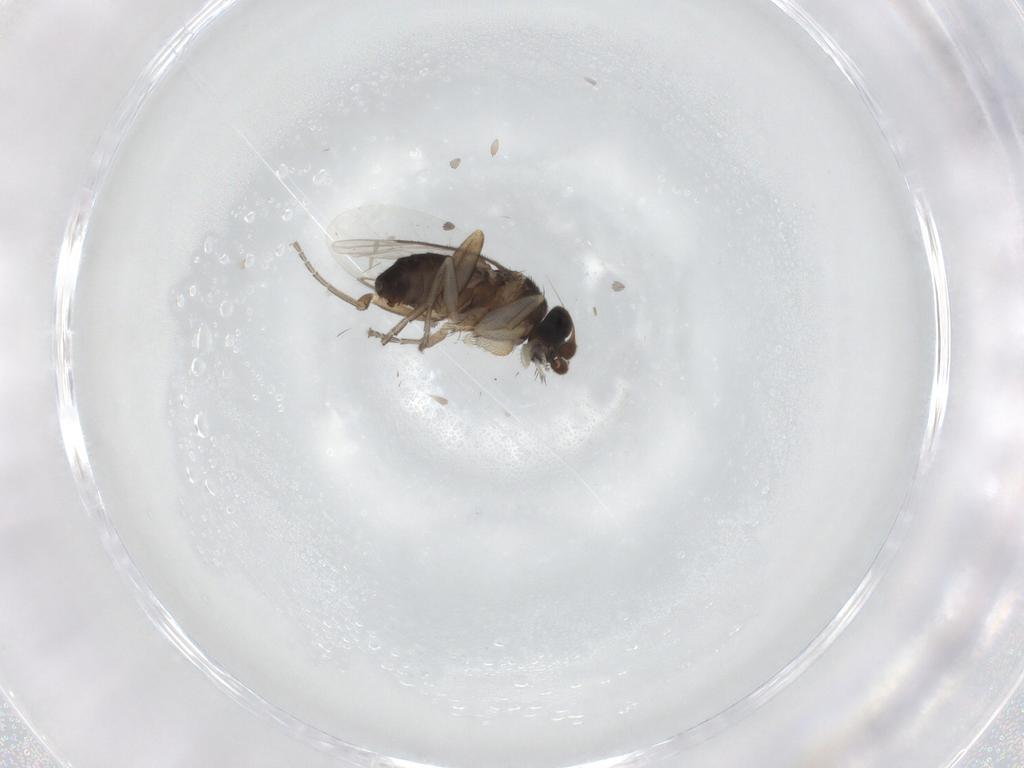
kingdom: Animalia
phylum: Arthropoda
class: Insecta
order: Diptera
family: Phoridae
